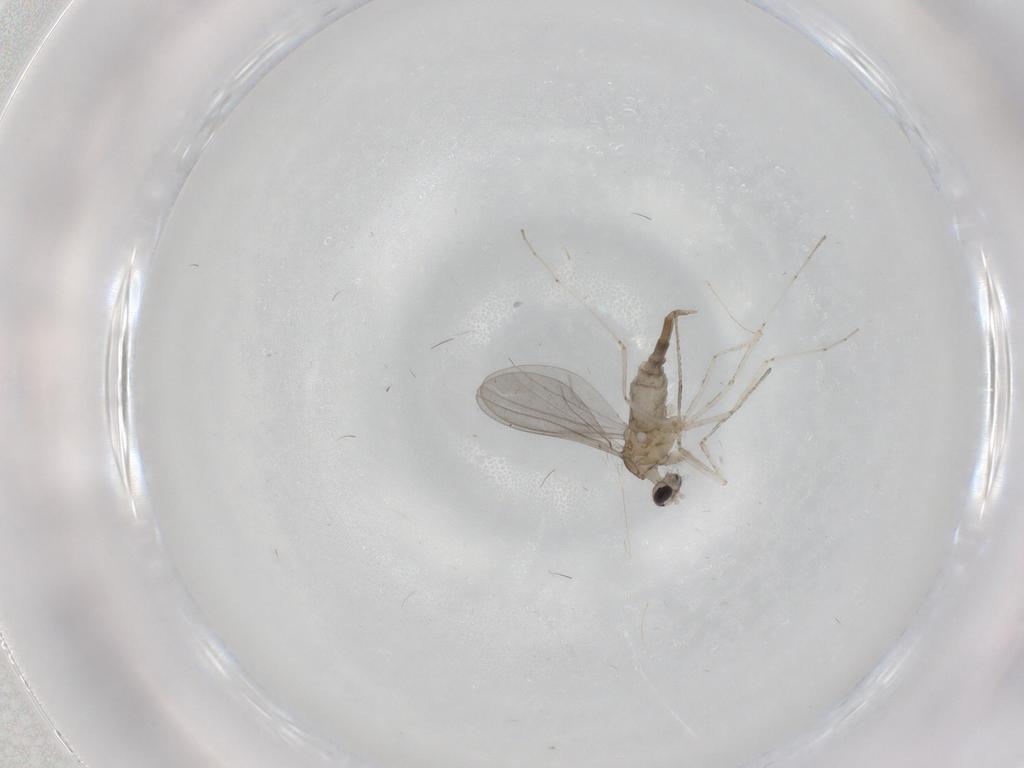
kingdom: Animalia
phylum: Arthropoda
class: Insecta
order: Diptera
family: Cecidomyiidae
